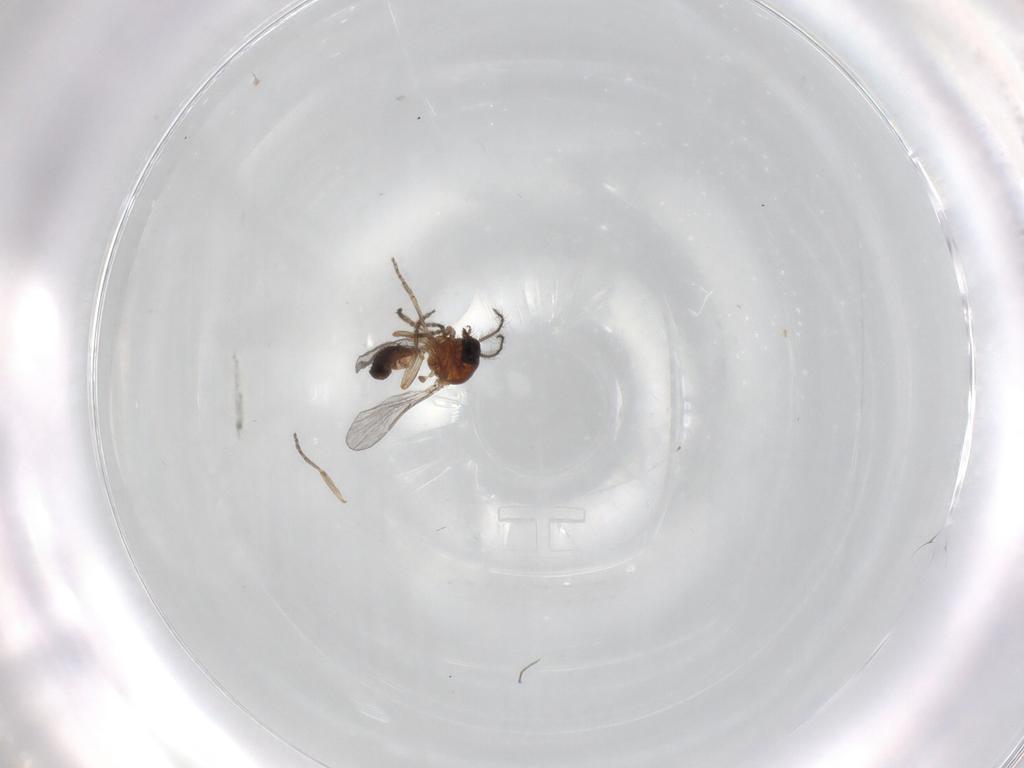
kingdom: Animalia
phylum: Arthropoda
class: Insecta
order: Diptera
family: Ceratopogonidae
